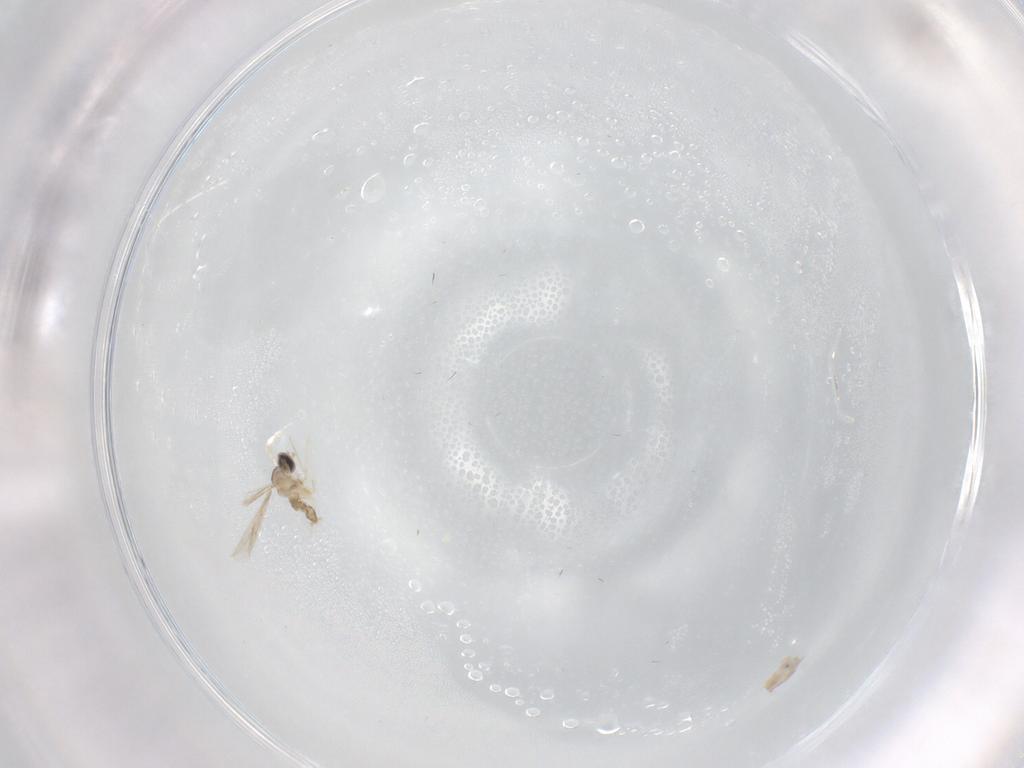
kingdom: Animalia
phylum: Arthropoda
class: Insecta
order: Diptera
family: Cecidomyiidae
